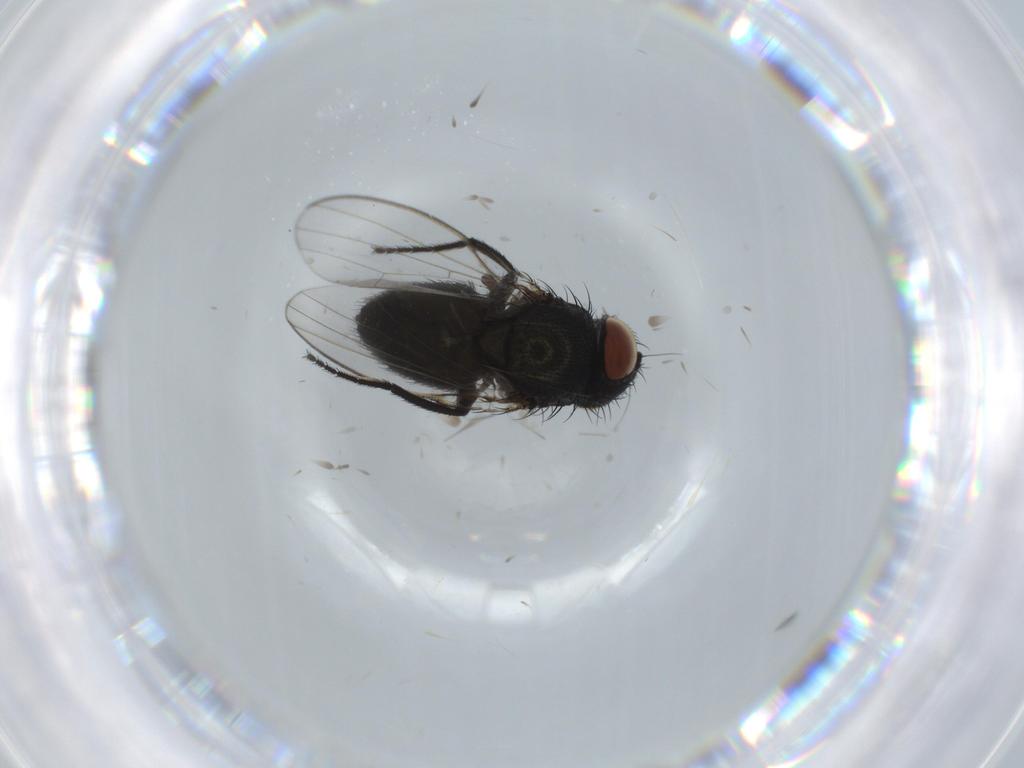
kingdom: Animalia
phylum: Arthropoda
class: Insecta
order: Diptera
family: Milichiidae
